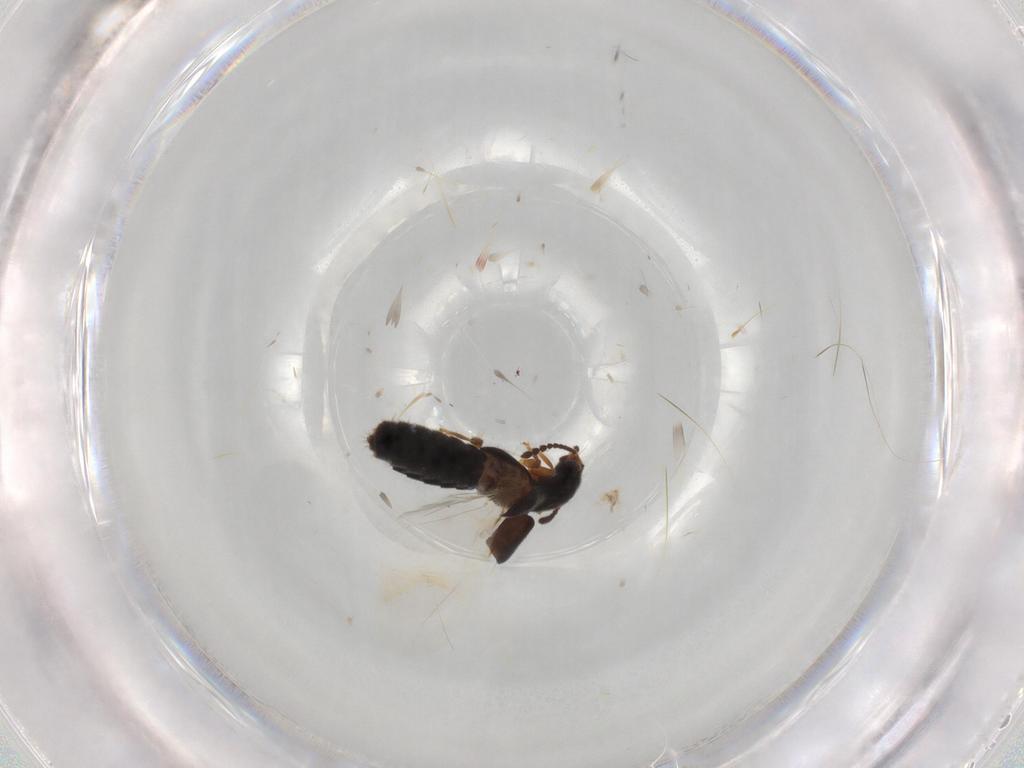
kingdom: Animalia
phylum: Arthropoda
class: Insecta
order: Coleoptera
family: Staphylinidae
